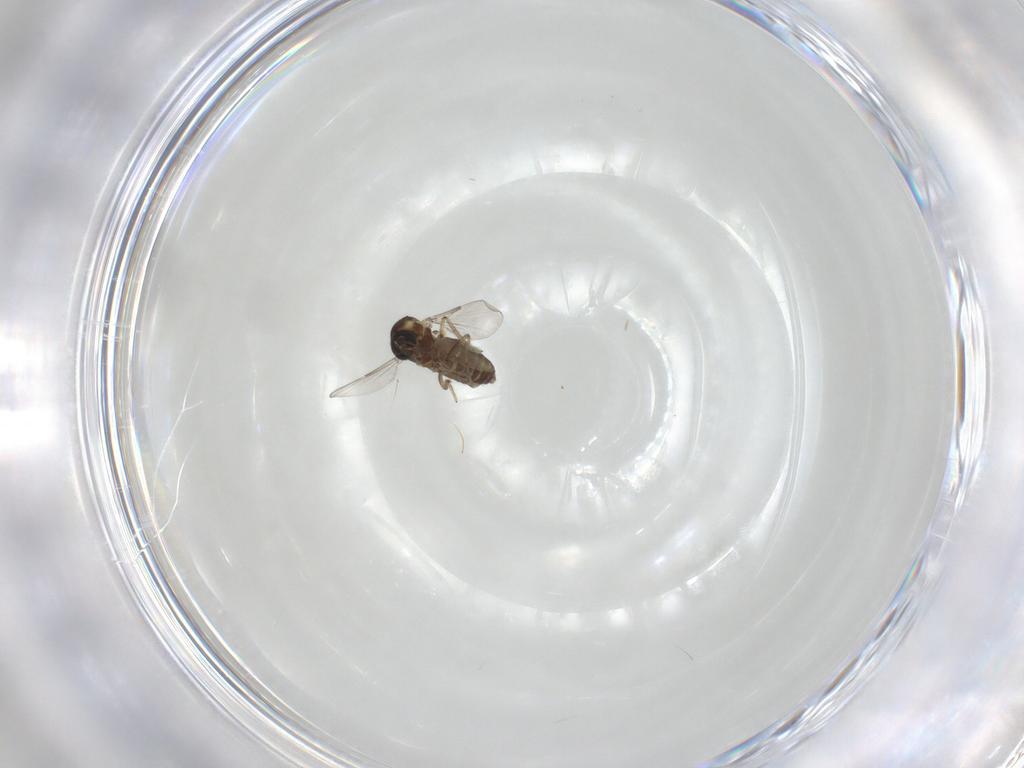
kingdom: Animalia
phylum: Arthropoda
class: Insecta
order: Diptera
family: Ceratopogonidae
